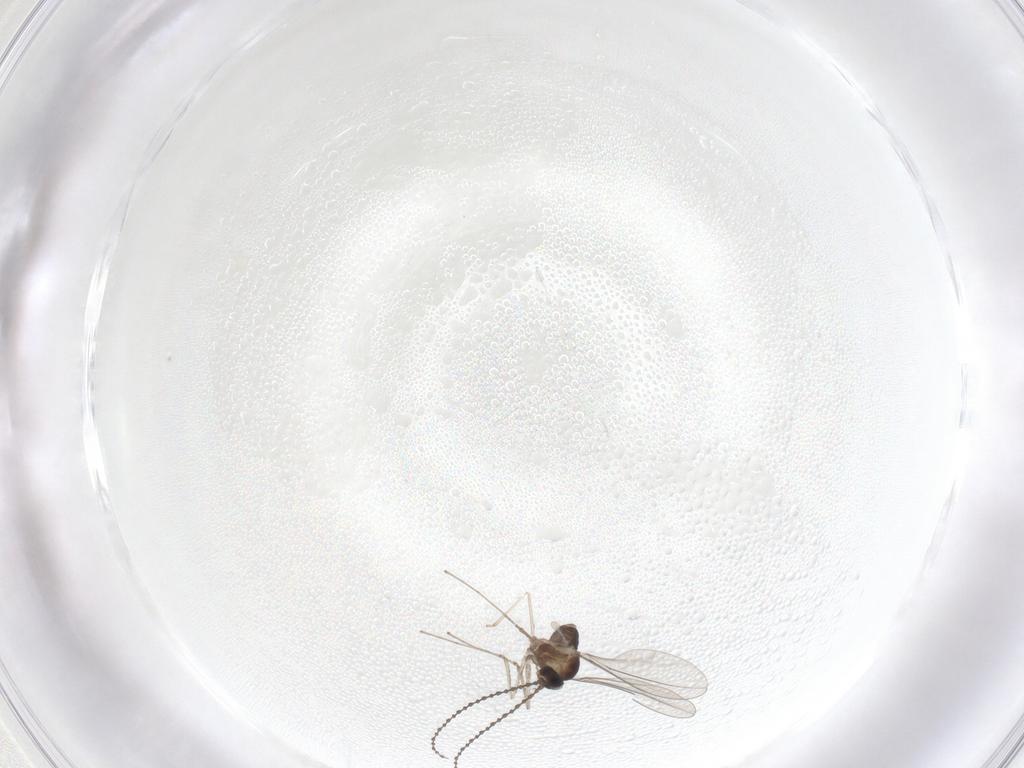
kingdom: Animalia
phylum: Arthropoda
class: Insecta
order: Diptera
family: Cecidomyiidae
